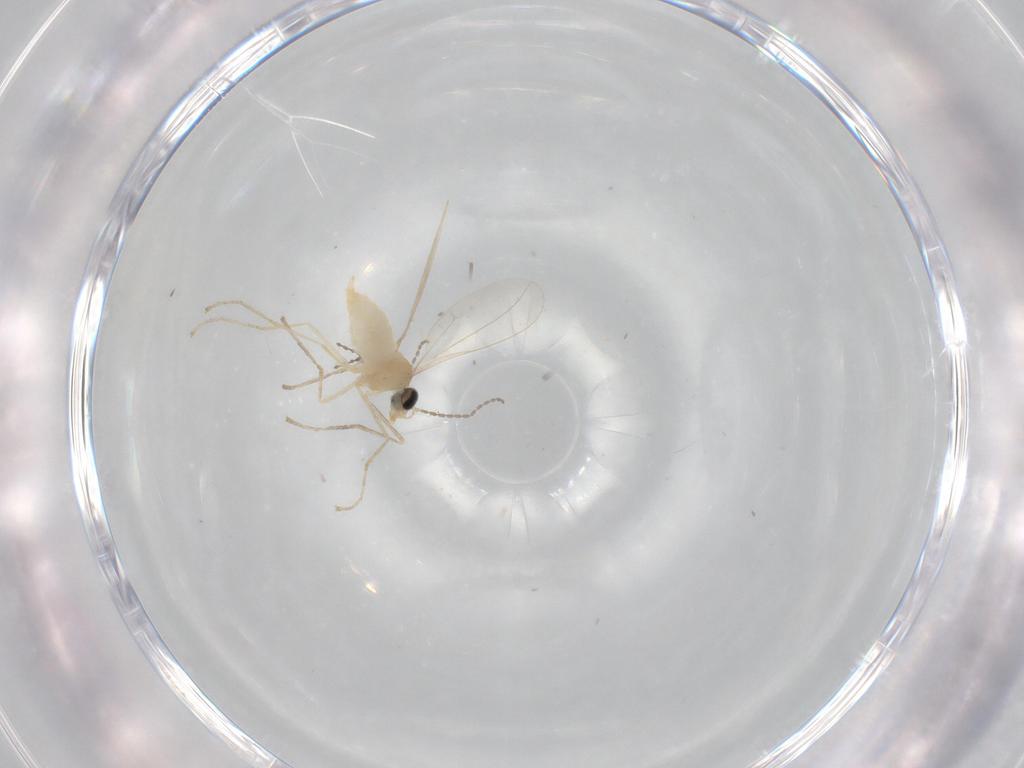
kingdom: Animalia
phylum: Arthropoda
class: Insecta
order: Diptera
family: Cecidomyiidae
